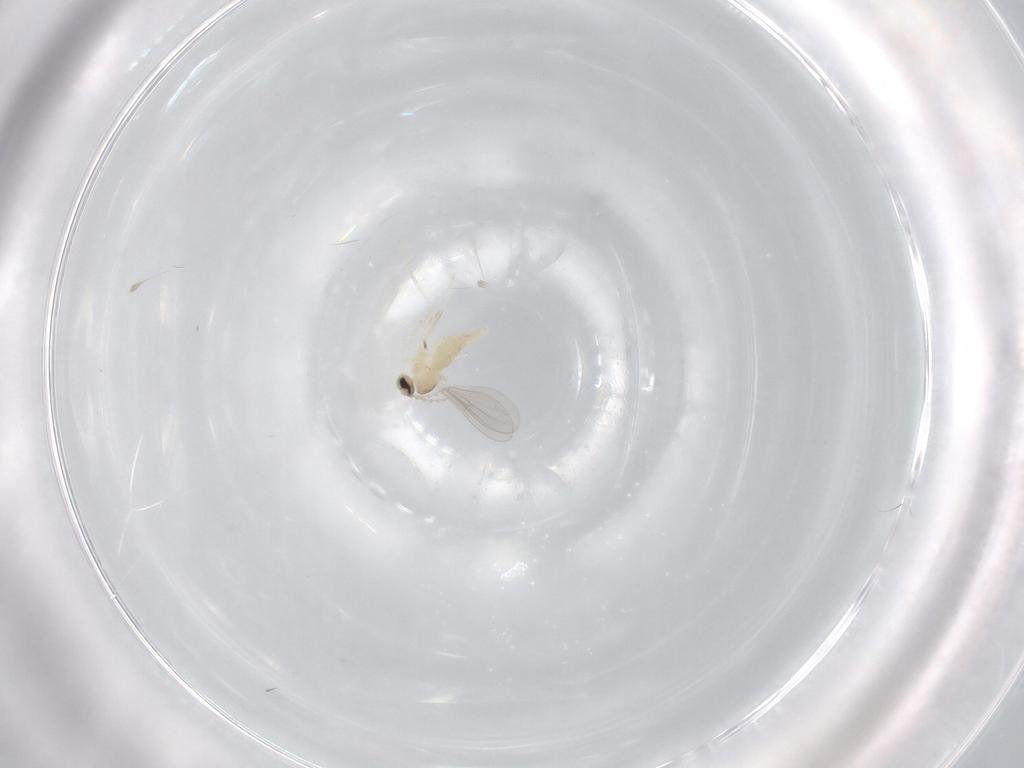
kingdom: Animalia
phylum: Arthropoda
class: Insecta
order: Diptera
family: Cecidomyiidae
